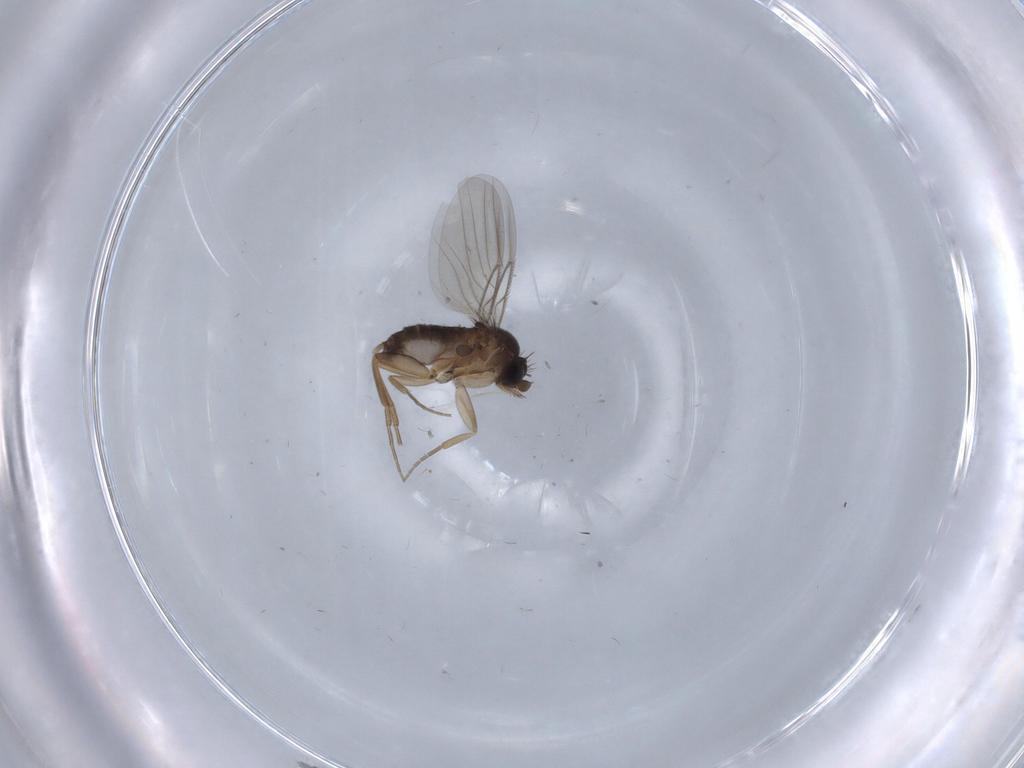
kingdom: Animalia
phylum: Arthropoda
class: Insecta
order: Diptera
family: Phoridae
